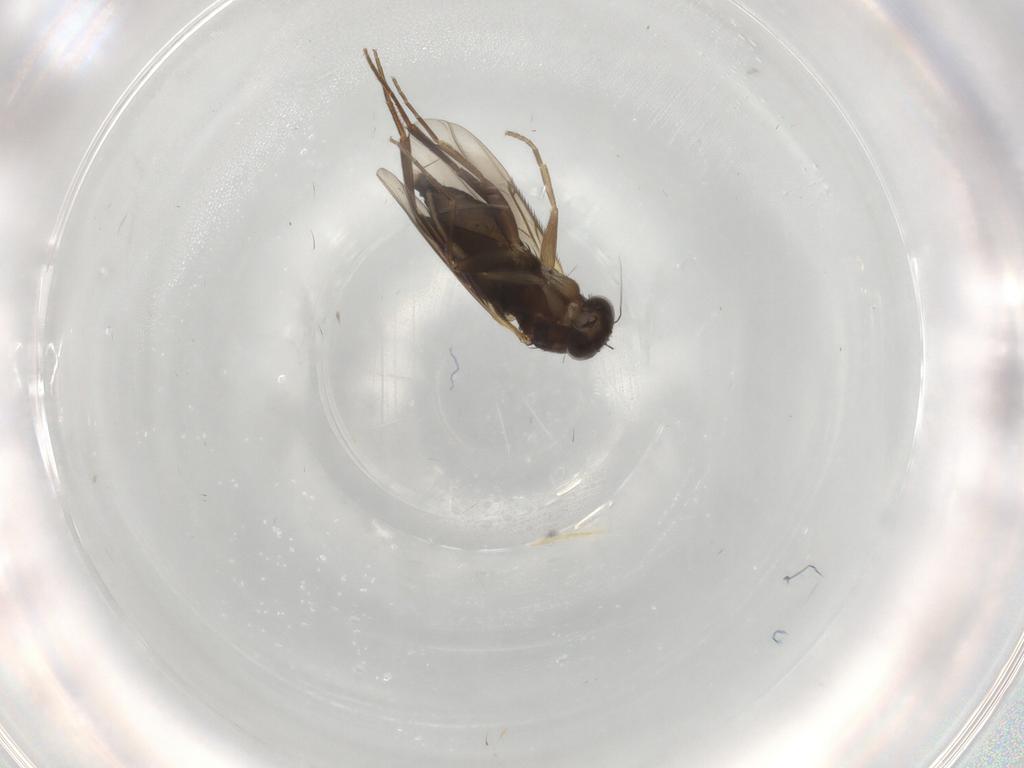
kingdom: Animalia
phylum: Arthropoda
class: Insecta
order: Diptera
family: Phoridae
